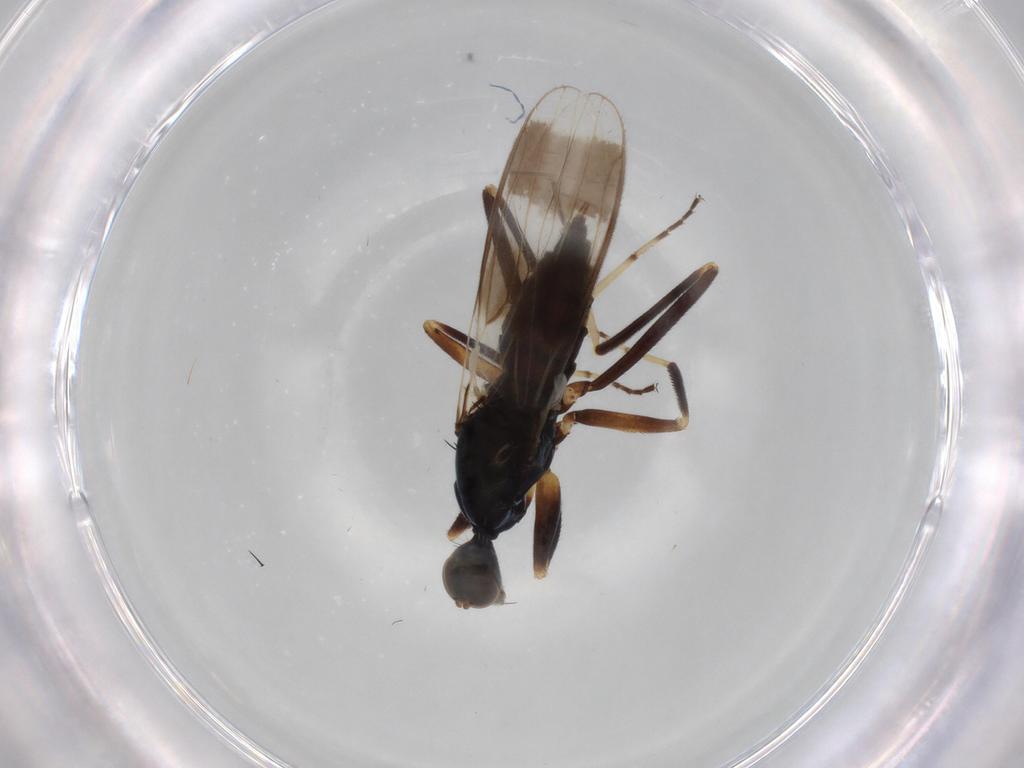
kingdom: Animalia
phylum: Arthropoda
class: Insecta
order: Diptera
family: Hybotidae
